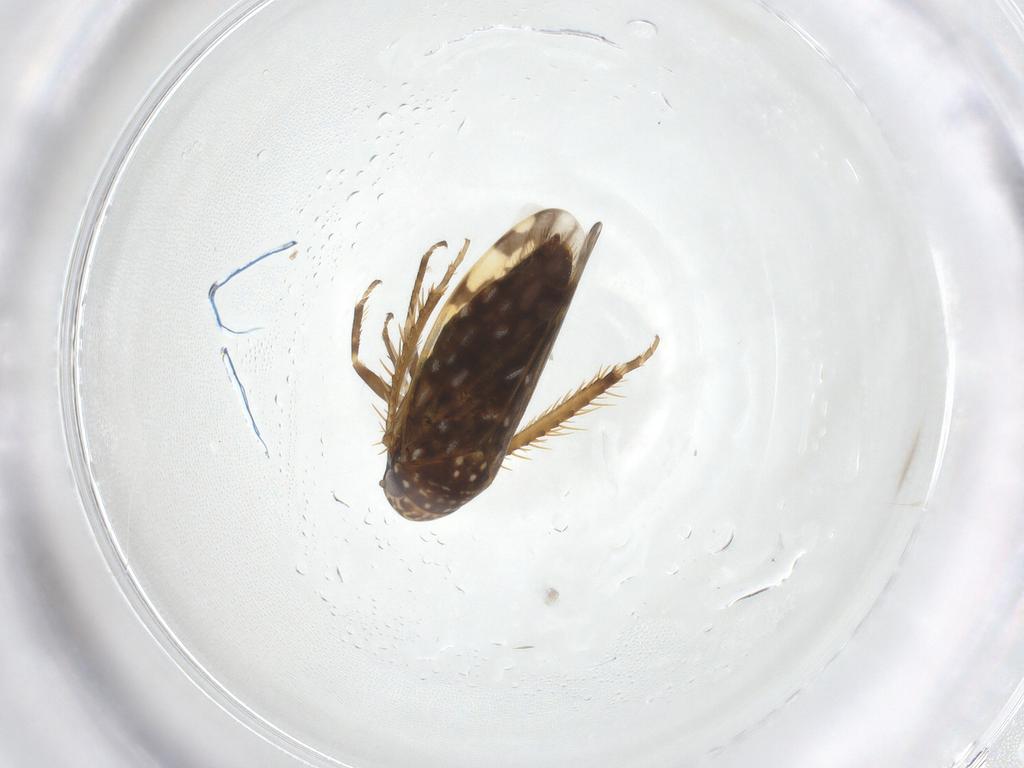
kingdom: Animalia
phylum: Arthropoda
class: Insecta
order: Hemiptera
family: Cicadellidae
